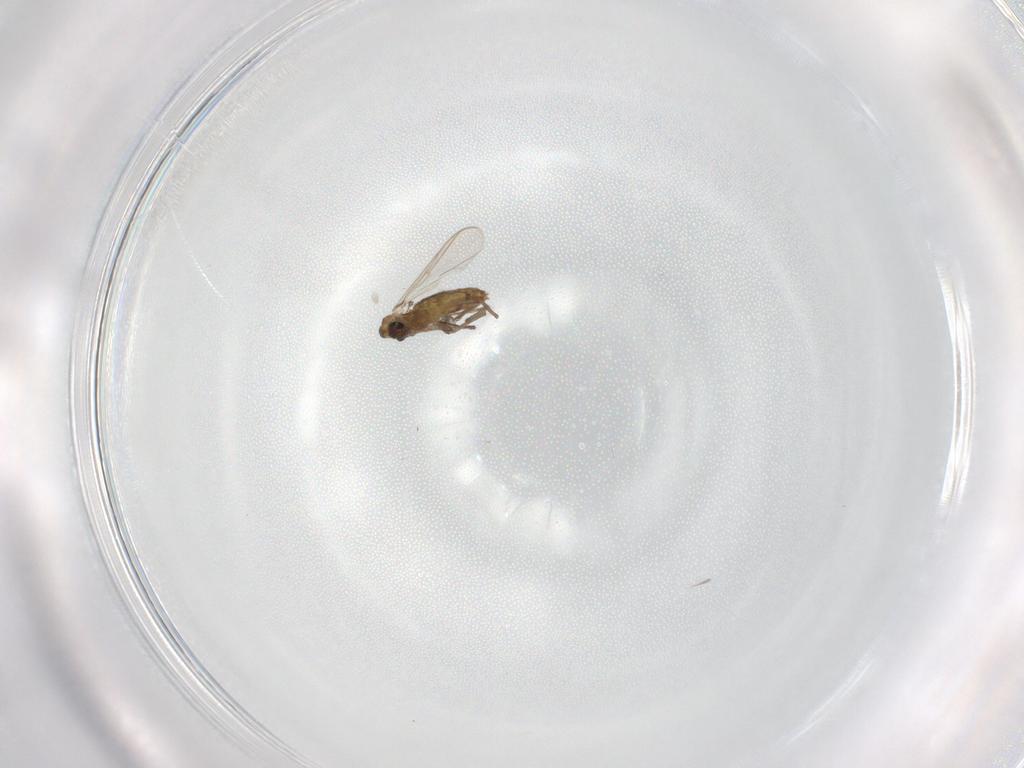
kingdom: Animalia
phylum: Arthropoda
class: Insecta
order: Diptera
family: Chironomidae
